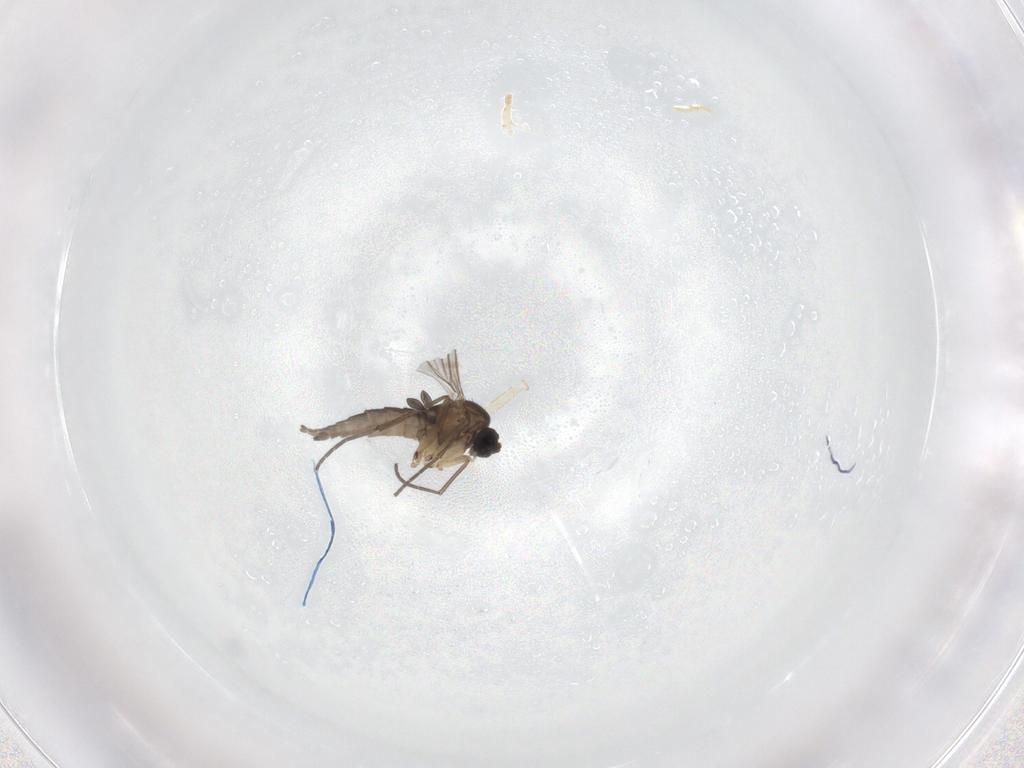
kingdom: Animalia
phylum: Arthropoda
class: Insecta
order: Diptera
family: Sciaridae
